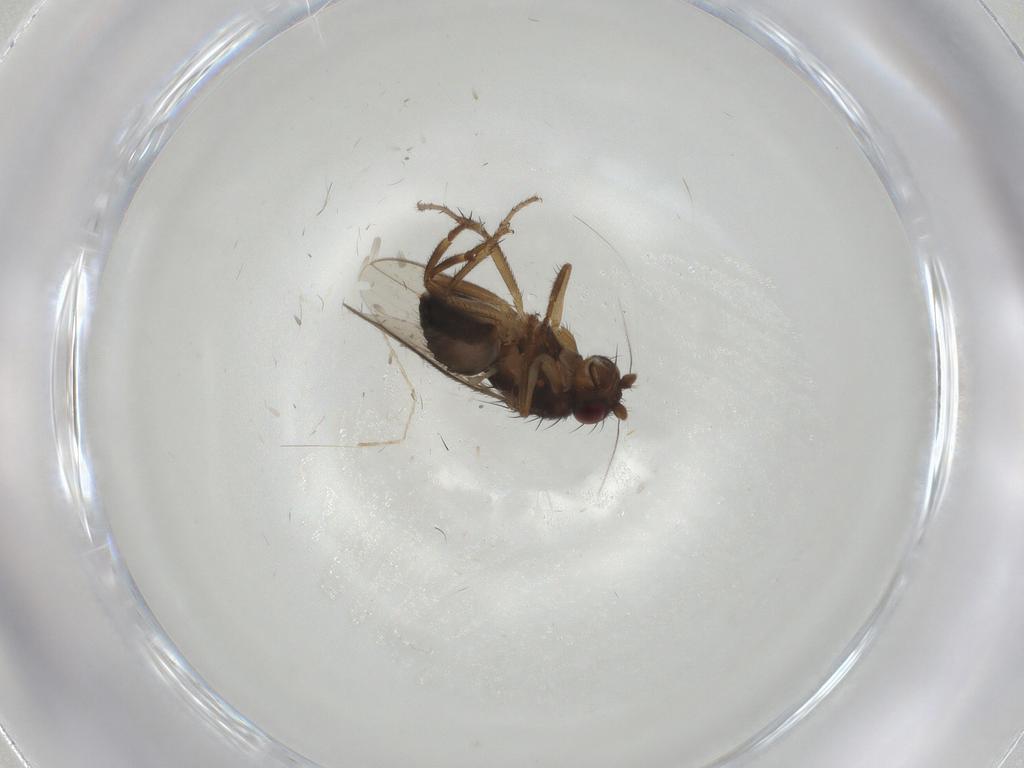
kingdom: Animalia
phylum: Arthropoda
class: Insecta
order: Diptera
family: Sphaeroceridae
